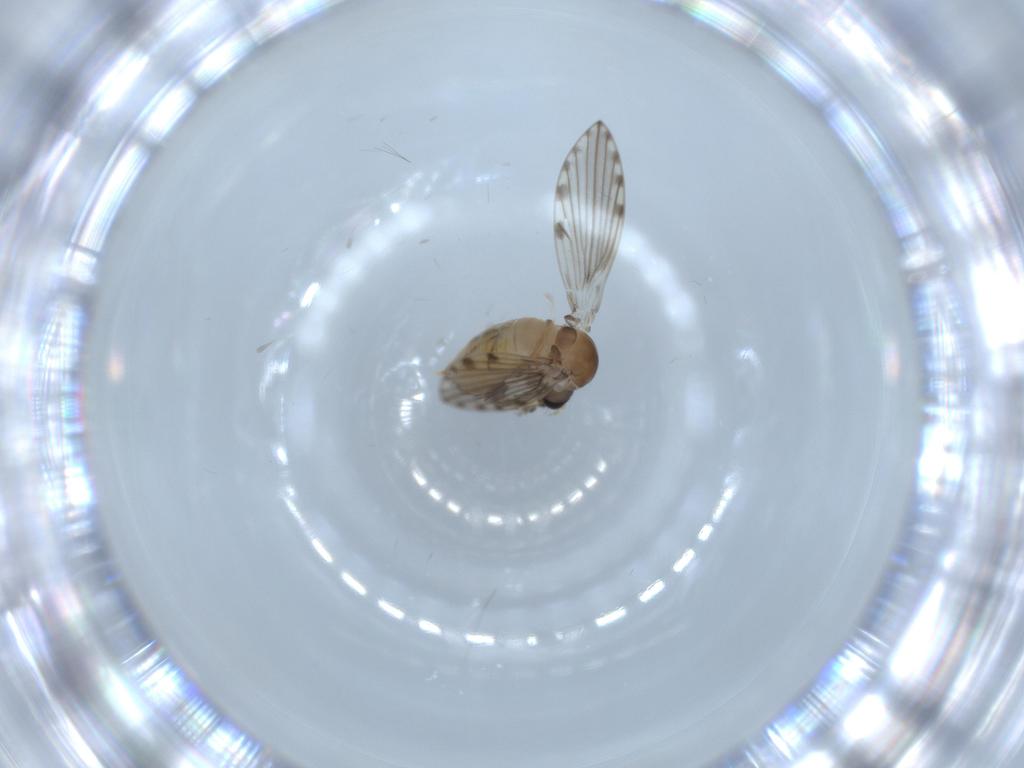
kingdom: Animalia
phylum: Arthropoda
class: Insecta
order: Diptera
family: Psychodidae
